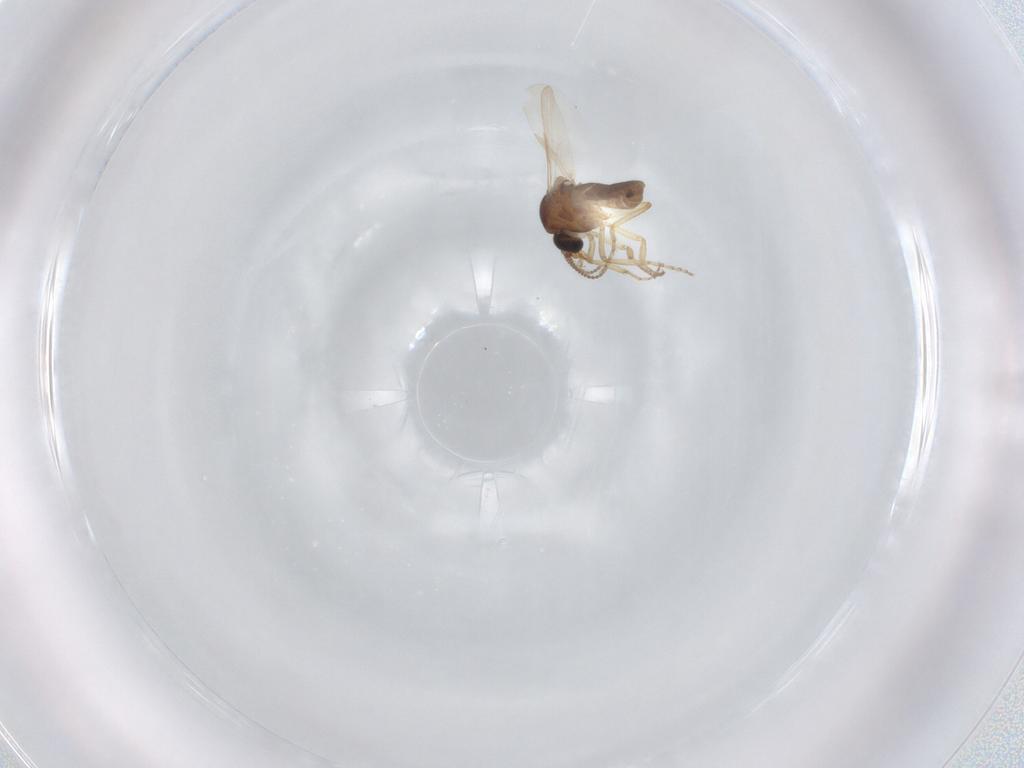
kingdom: Animalia
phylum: Arthropoda
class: Insecta
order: Diptera
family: Ceratopogonidae
